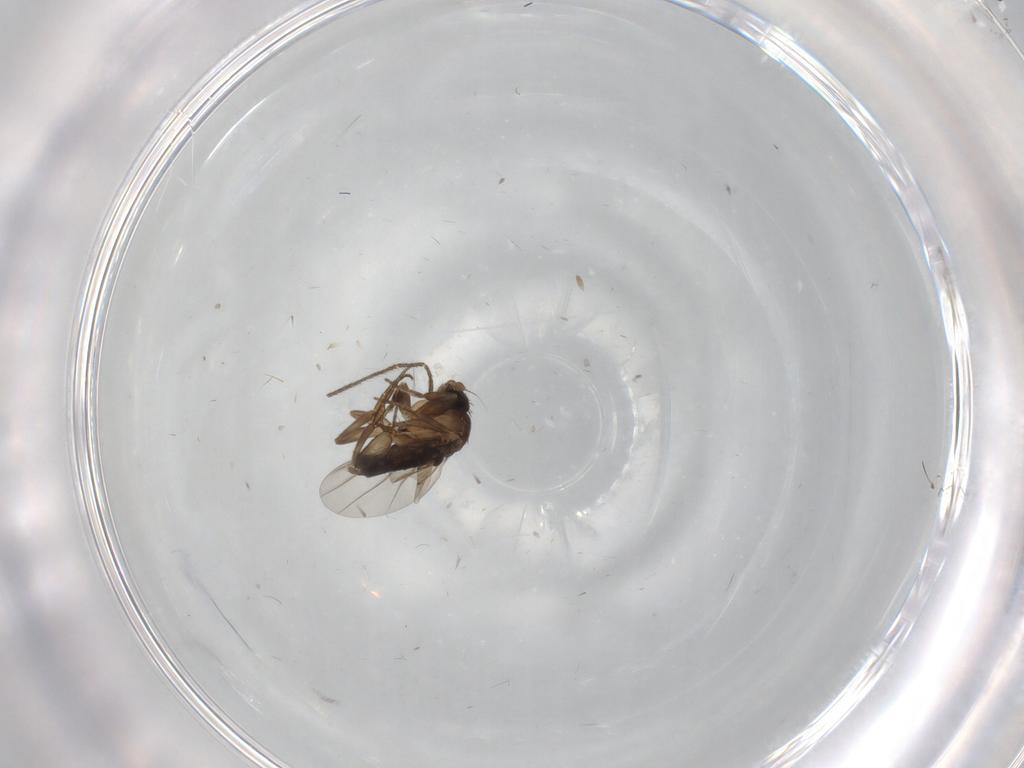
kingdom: Animalia
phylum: Arthropoda
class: Insecta
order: Diptera
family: Phoridae
